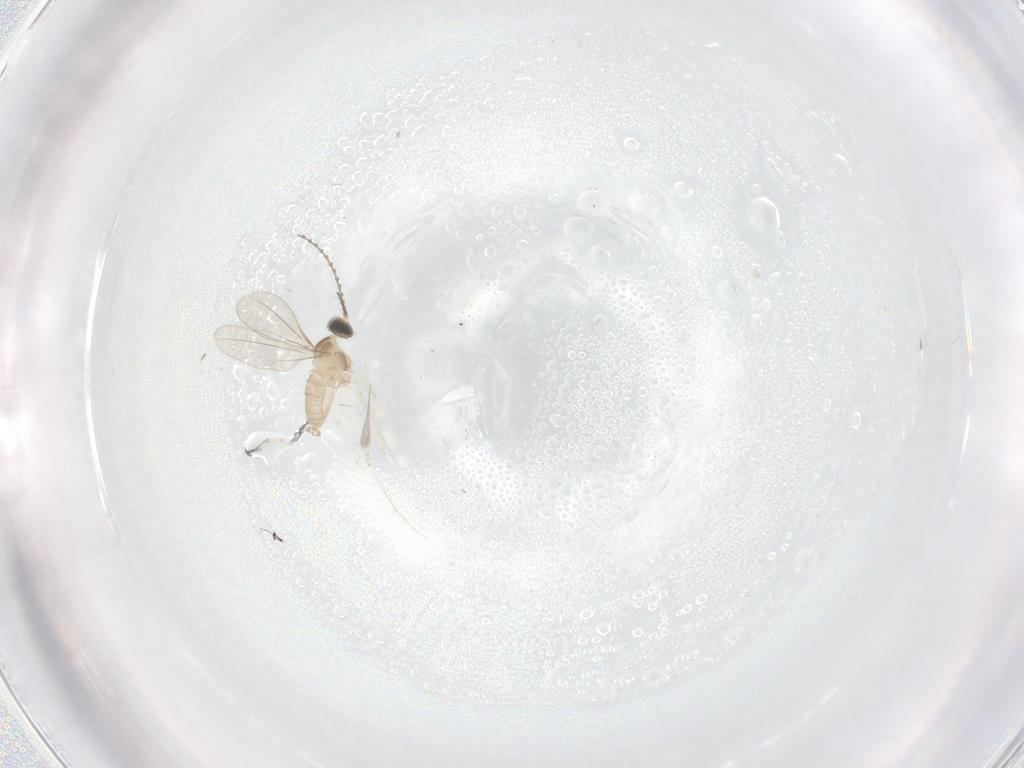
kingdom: Animalia
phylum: Arthropoda
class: Insecta
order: Diptera
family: Cecidomyiidae
